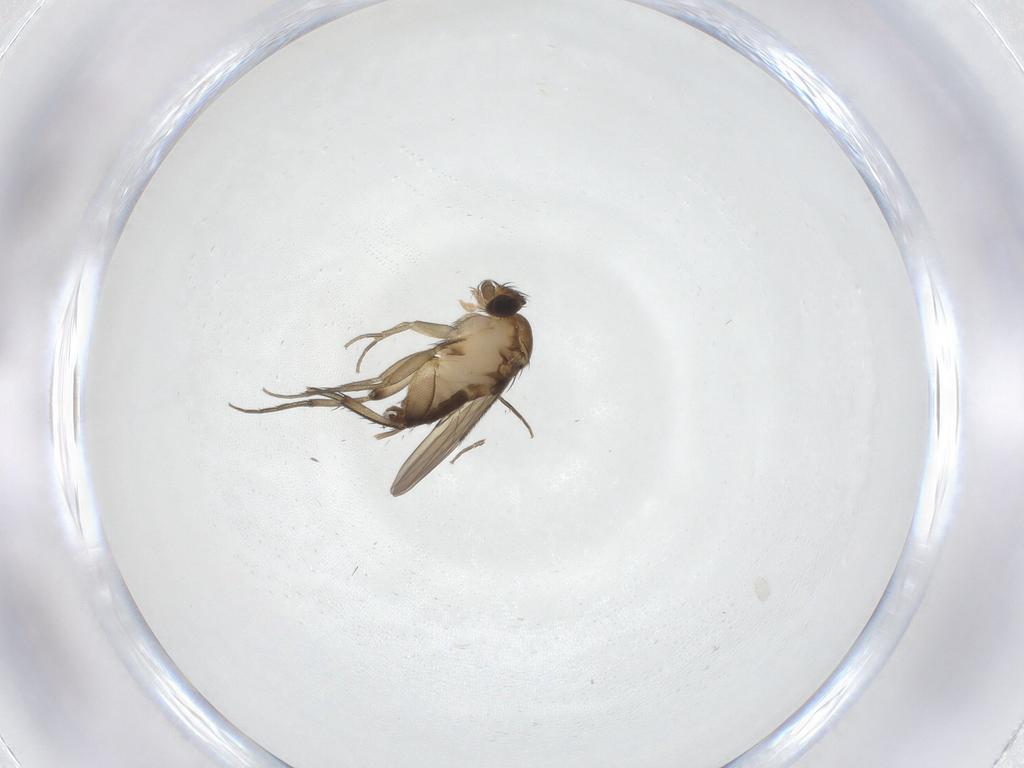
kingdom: Animalia
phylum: Arthropoda
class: Insecta
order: Diptera
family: Phoridae
